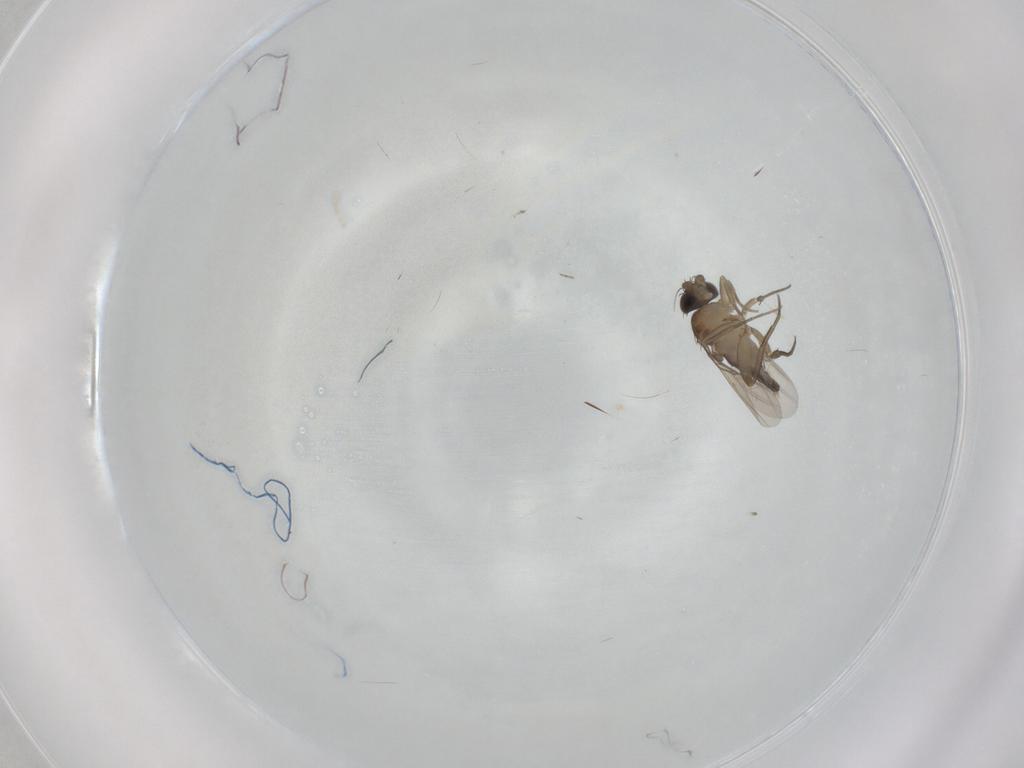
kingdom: Animalia
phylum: Arthropoda
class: Insecta
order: Diptera
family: Phoridae
